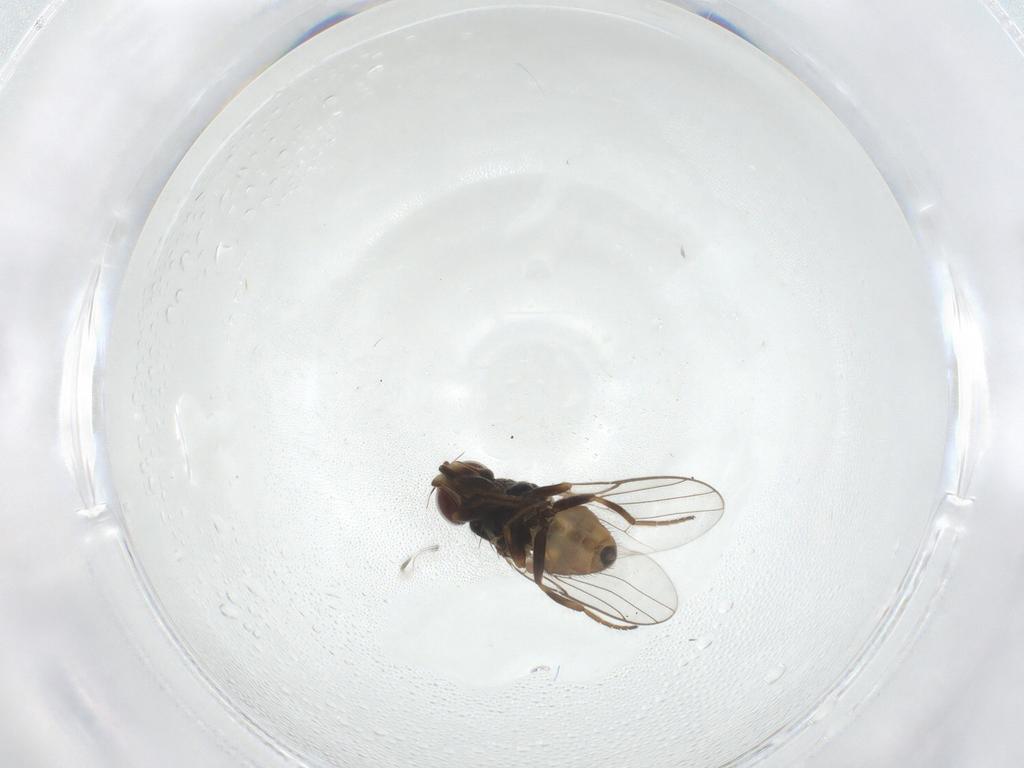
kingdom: Animalia
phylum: Arthropoda
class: Insecta
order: Diptera
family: Chloropidae
